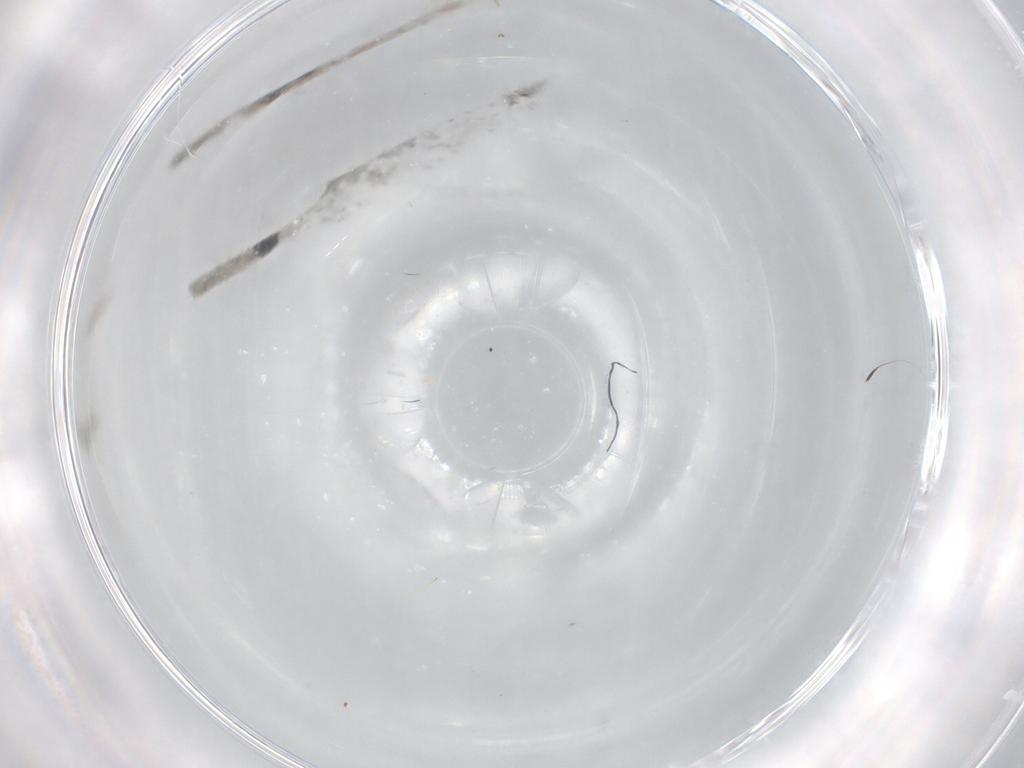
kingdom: Animalia
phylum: Arthropoda
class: Insecta
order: Diptera
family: Cecidomyiidae
